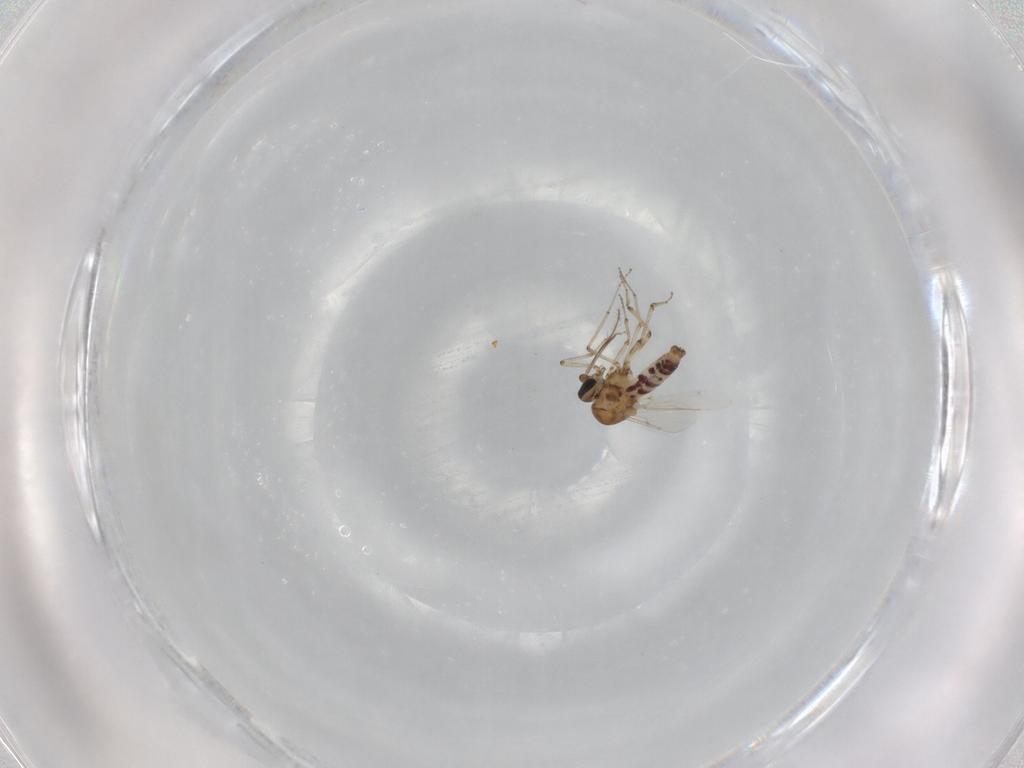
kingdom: Animalia
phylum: Arthropoda
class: Insecta
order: Diptera
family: Ceratopogonidae
